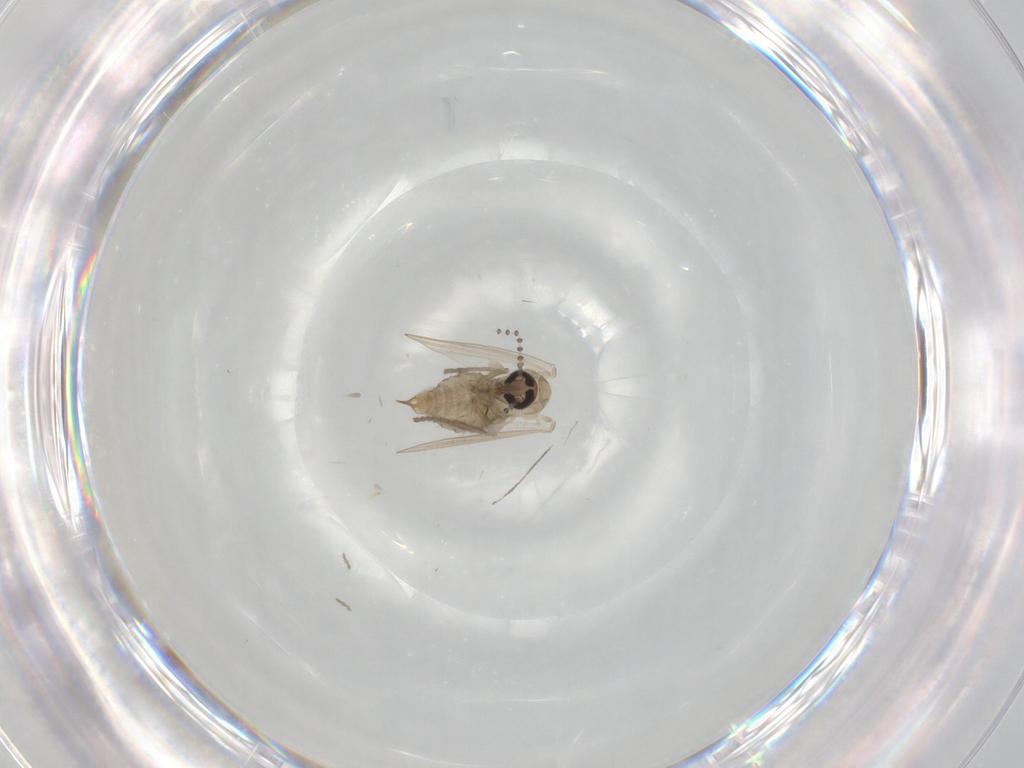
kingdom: Animalia
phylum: Arthropoda
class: Insecta
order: Diptera
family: Psychodidae
